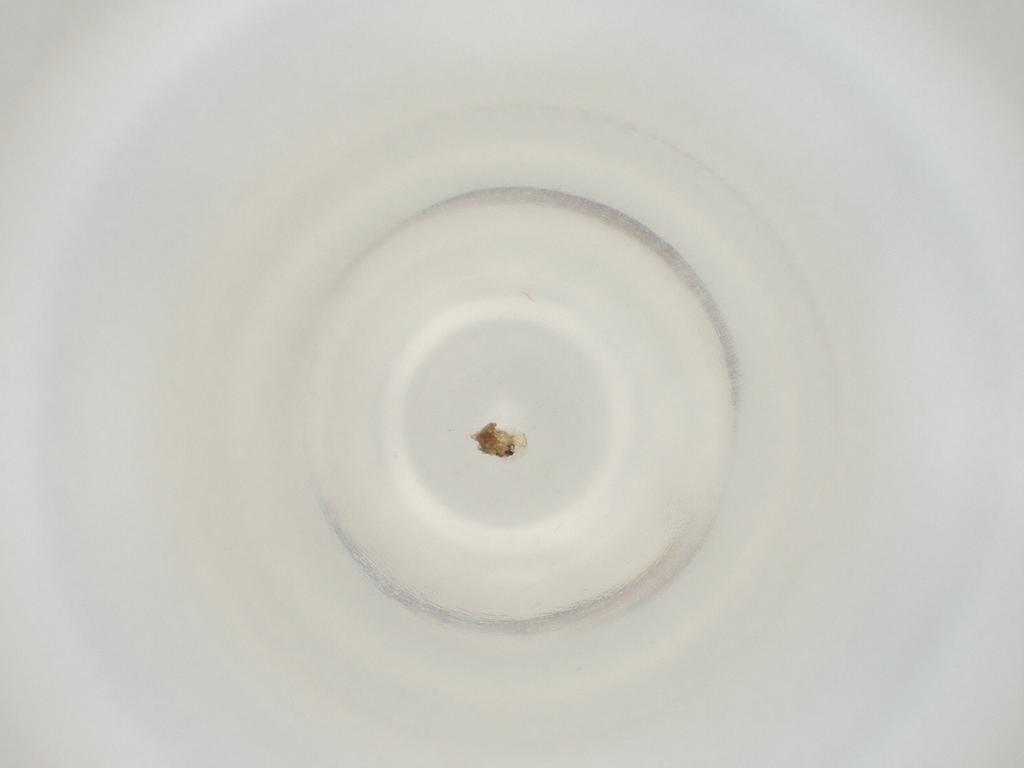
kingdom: Animalia
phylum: Arthropoda
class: Insecta
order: Diptera
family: Cecidomyiidae
